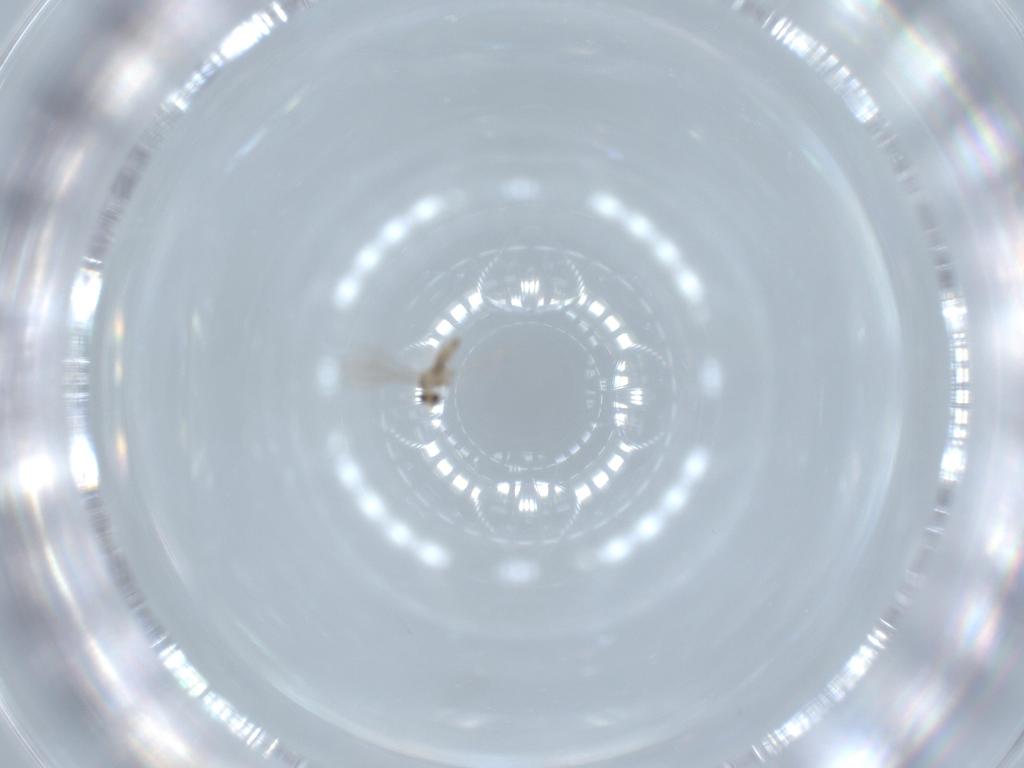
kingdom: Animalia
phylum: Arthropoda
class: Insecta
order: Diptera
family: Cecidomyiidae
